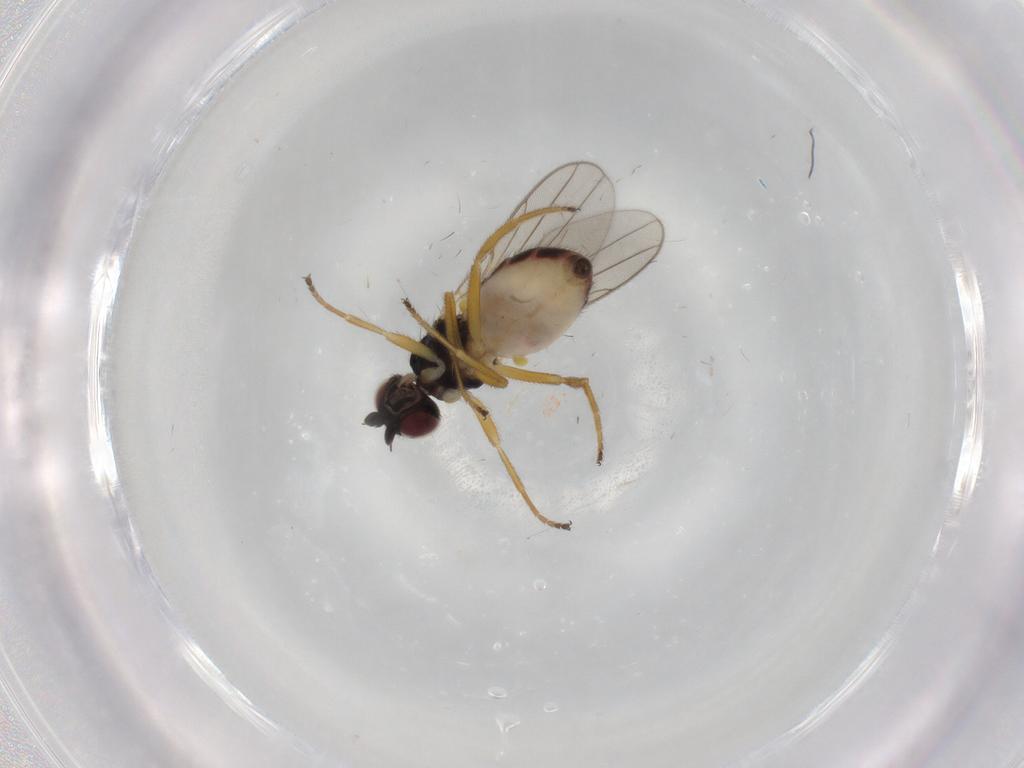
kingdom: Animalia
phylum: Arthropoda
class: Insecta
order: Diptera
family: Chloropidae
